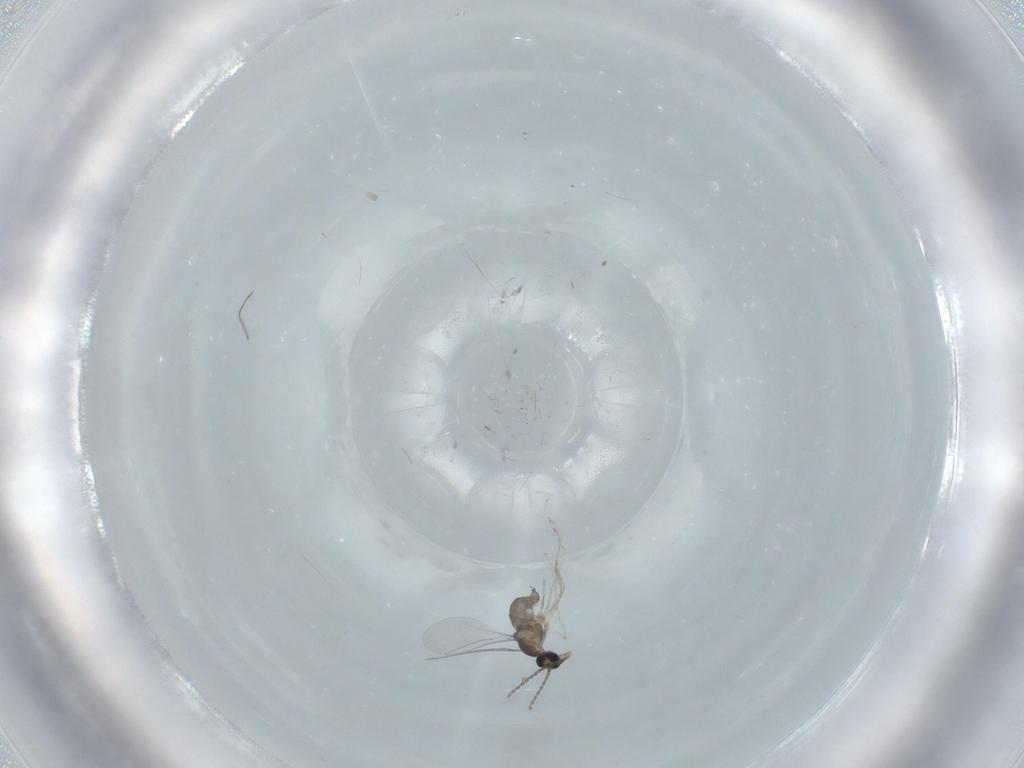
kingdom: Animalia
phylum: Arthropoda
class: Insecta
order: Diptera
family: Cecidomyiidae
